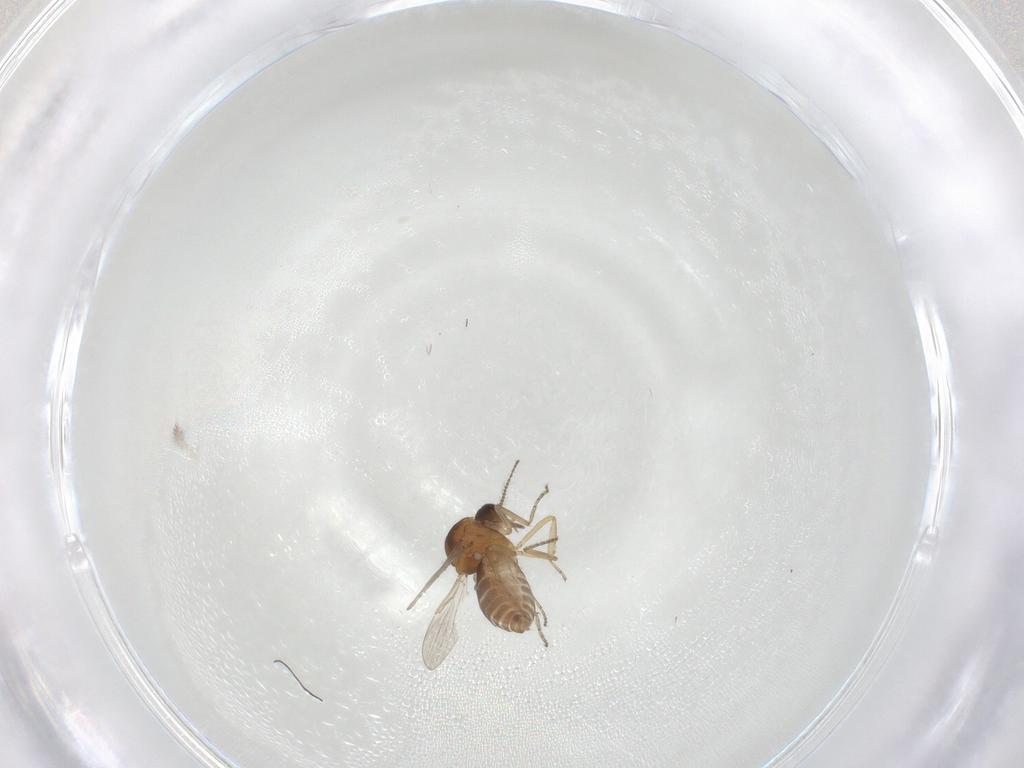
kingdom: Animalia
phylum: Arthropoda
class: Insecta
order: Diptera
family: Ceratopogonidae
